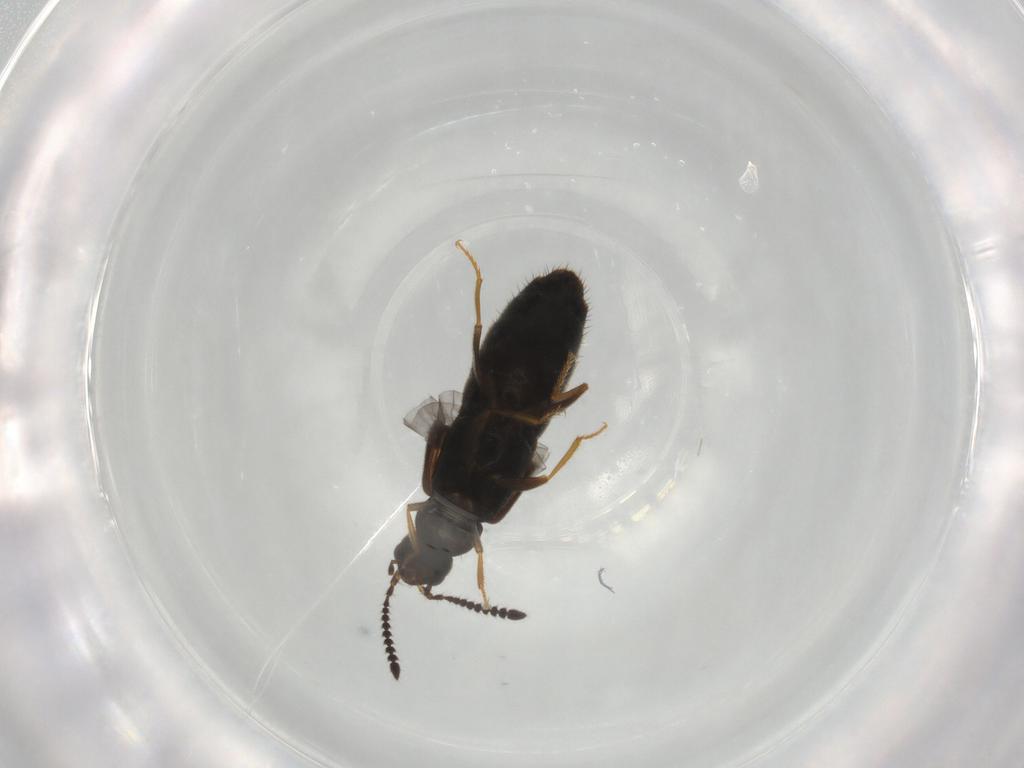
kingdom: Animalia
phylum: Arthropoda
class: Insecta
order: Coleoptera
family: Staphylinidae
